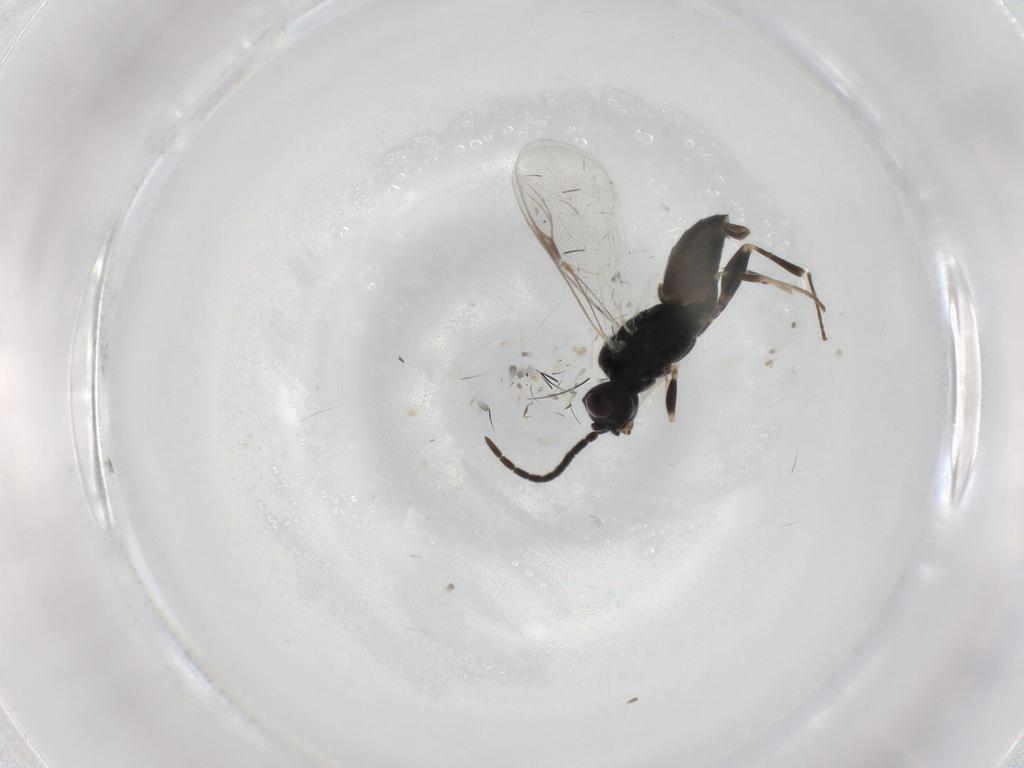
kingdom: Animalia
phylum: Arthropoda
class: Insecta
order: Hymenoptera
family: Dryinidae
